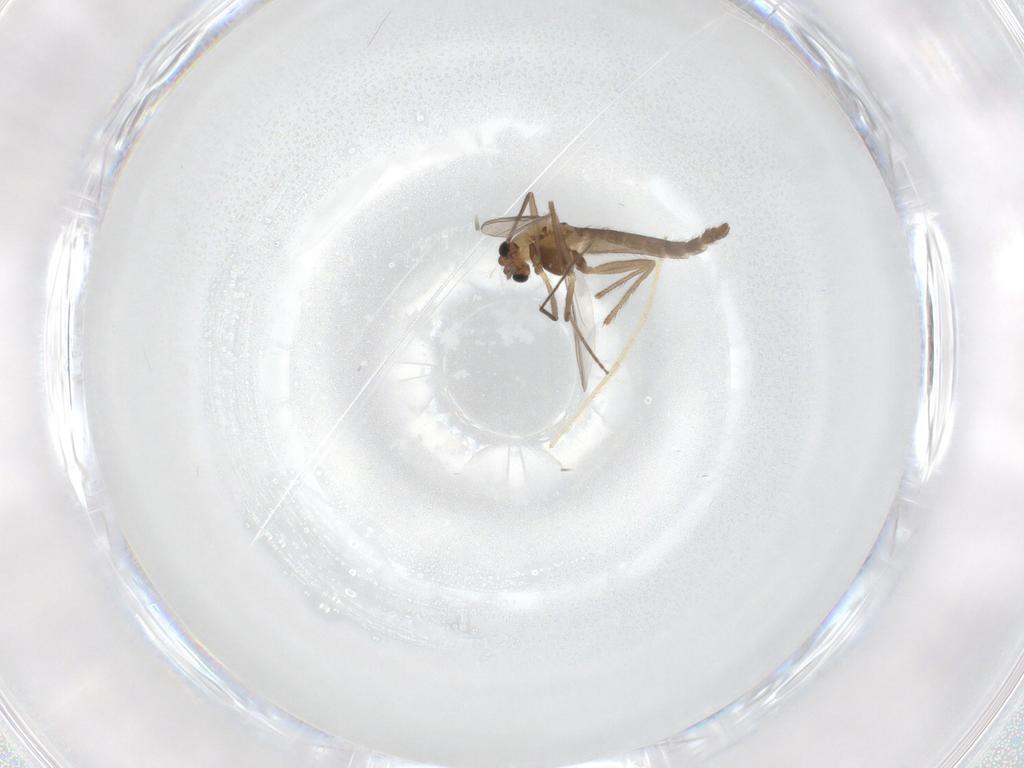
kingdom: Animalia
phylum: Arthropoda
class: Insecta
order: Diptera
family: Chironomidae
